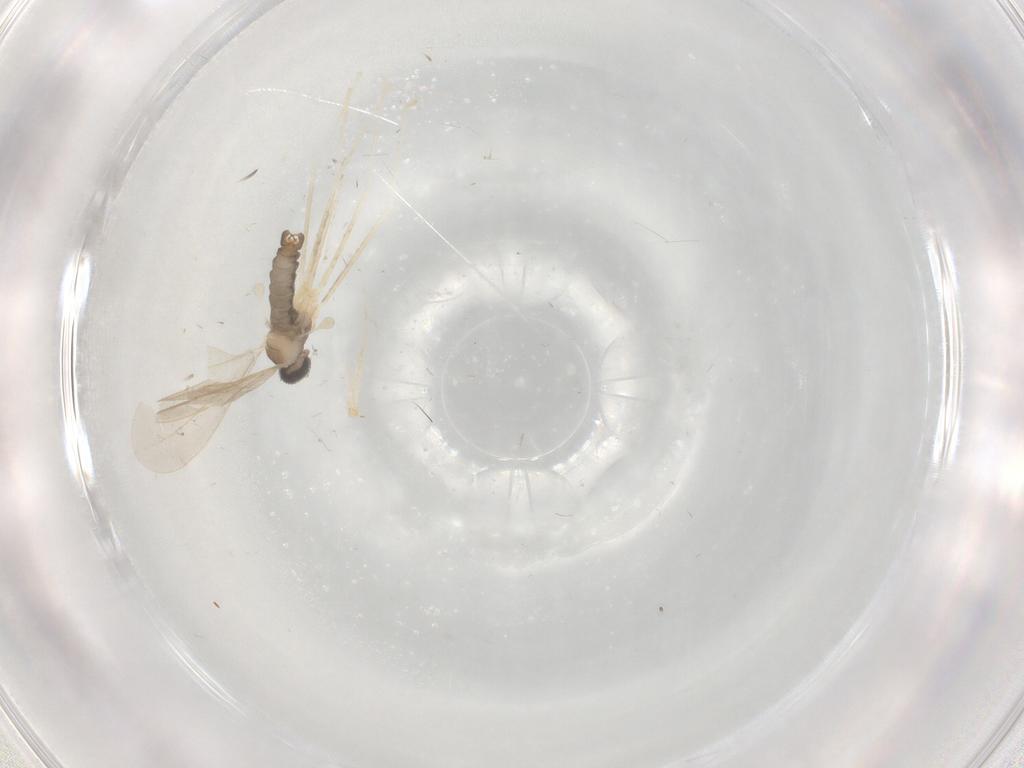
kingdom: Animalia
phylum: Arthropoda
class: Insecta
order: Diptera
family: Cecidomyiidae
